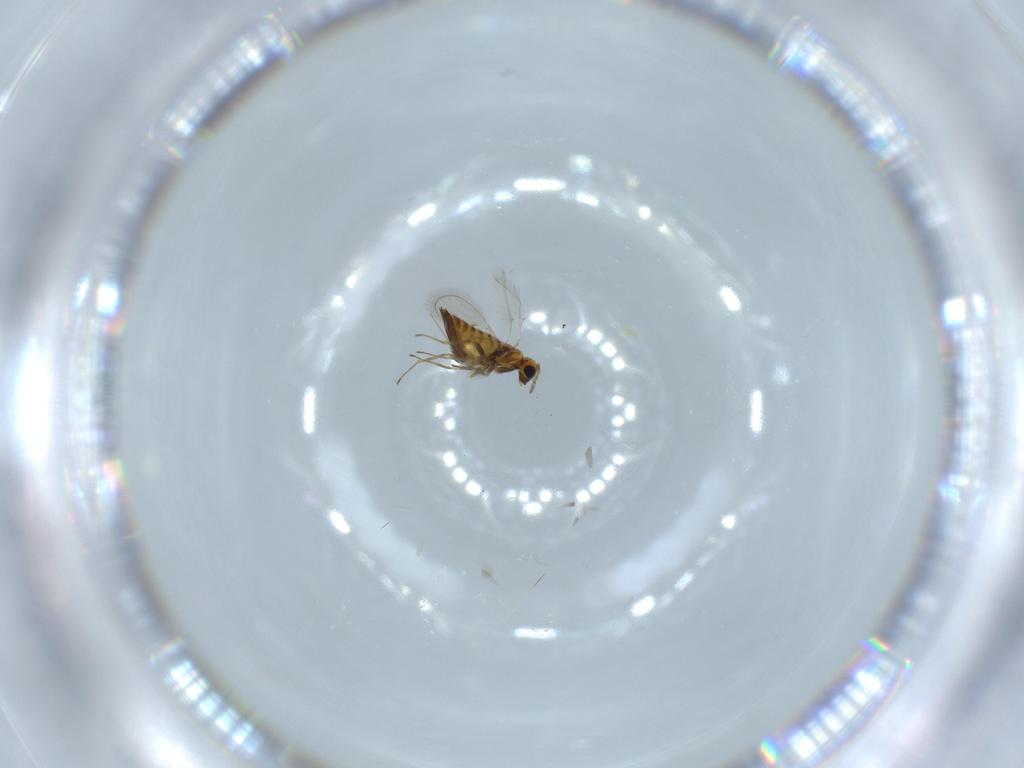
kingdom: Animalia
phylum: Arthropoda
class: Insecta
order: Hymenoptera
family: Trichogrammatidae
